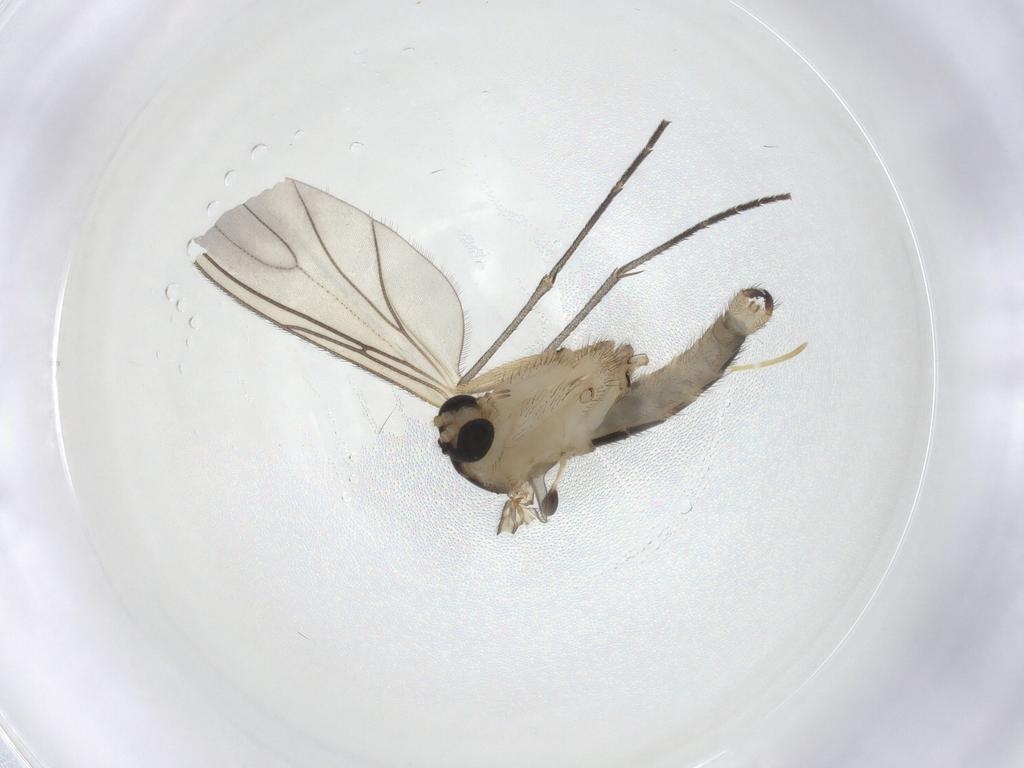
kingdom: Animalia
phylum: Arthropoda
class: Insecta
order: Diptera
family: Sciaridae
